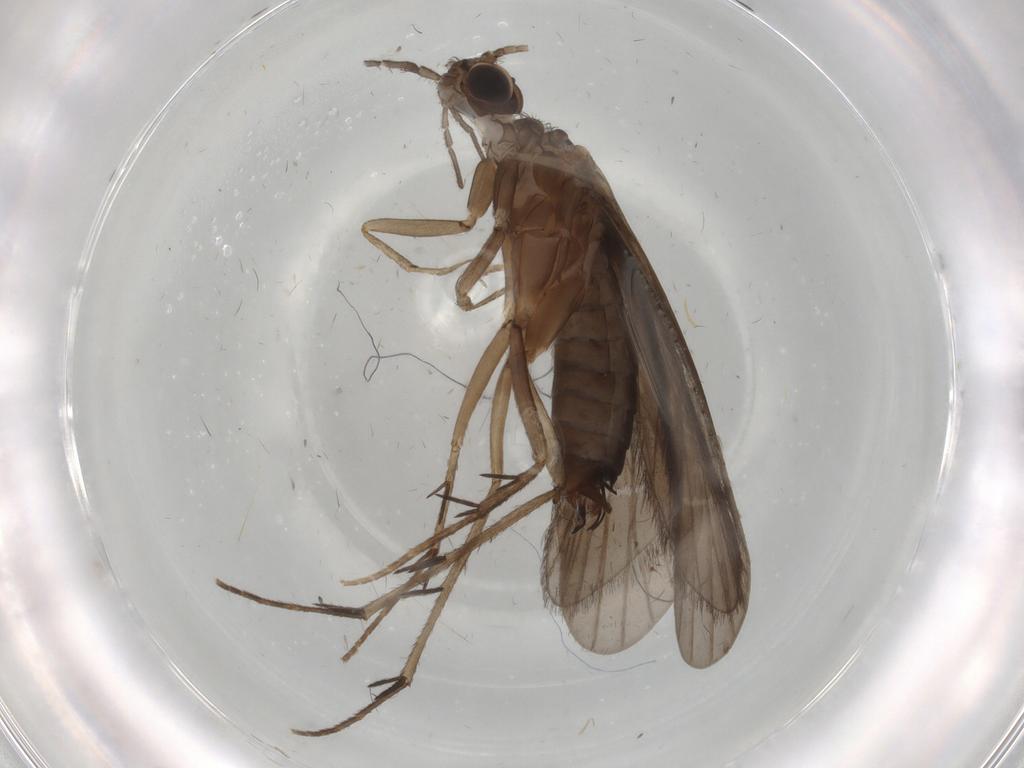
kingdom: Animalia
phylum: Arthropoda
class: Insecta
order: Trichoptera
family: Philopotamidae
